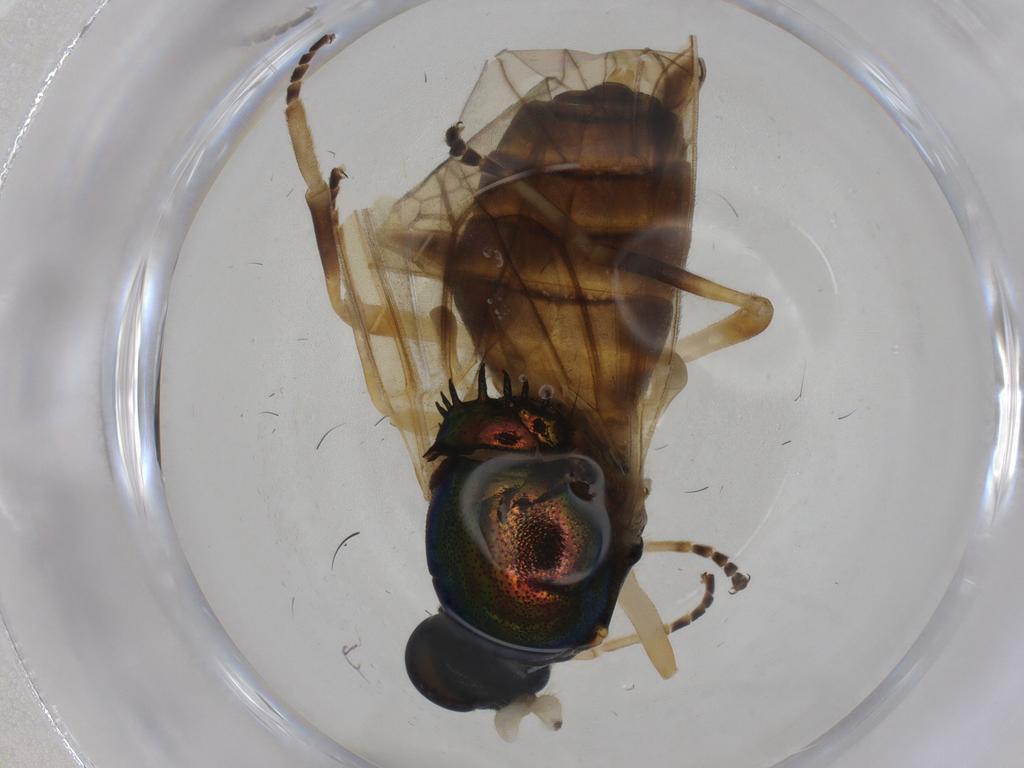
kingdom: Animalia
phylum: Arthropoda
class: Insecta
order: Diptera
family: Stratiomyidae
